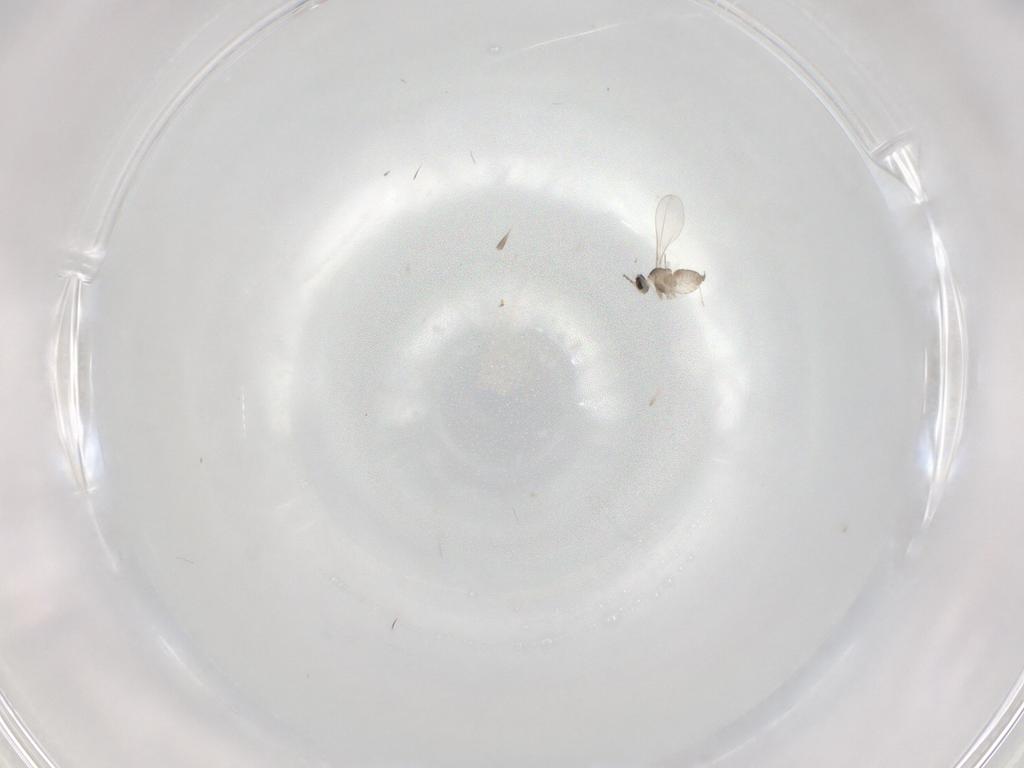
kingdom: Animalia
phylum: Arthropoda
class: Insecta
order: Diptera
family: Cecidomyiidae
